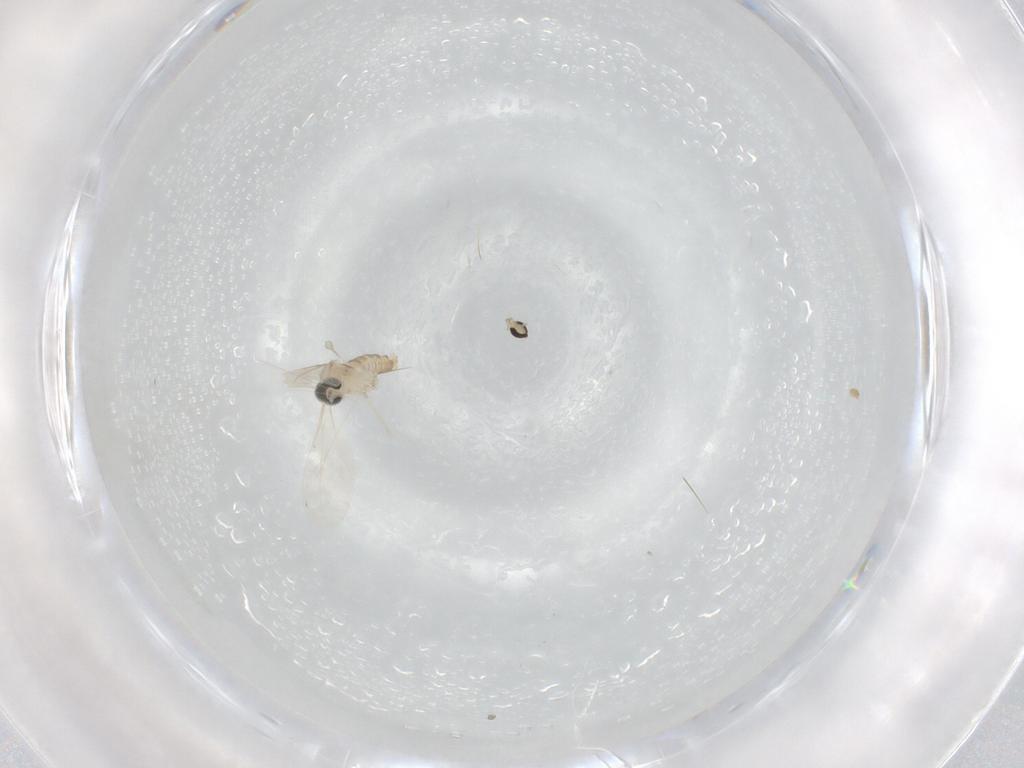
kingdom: Animalia
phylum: Arthropoda
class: Insecta
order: Diptera
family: Cecidomyiidae
